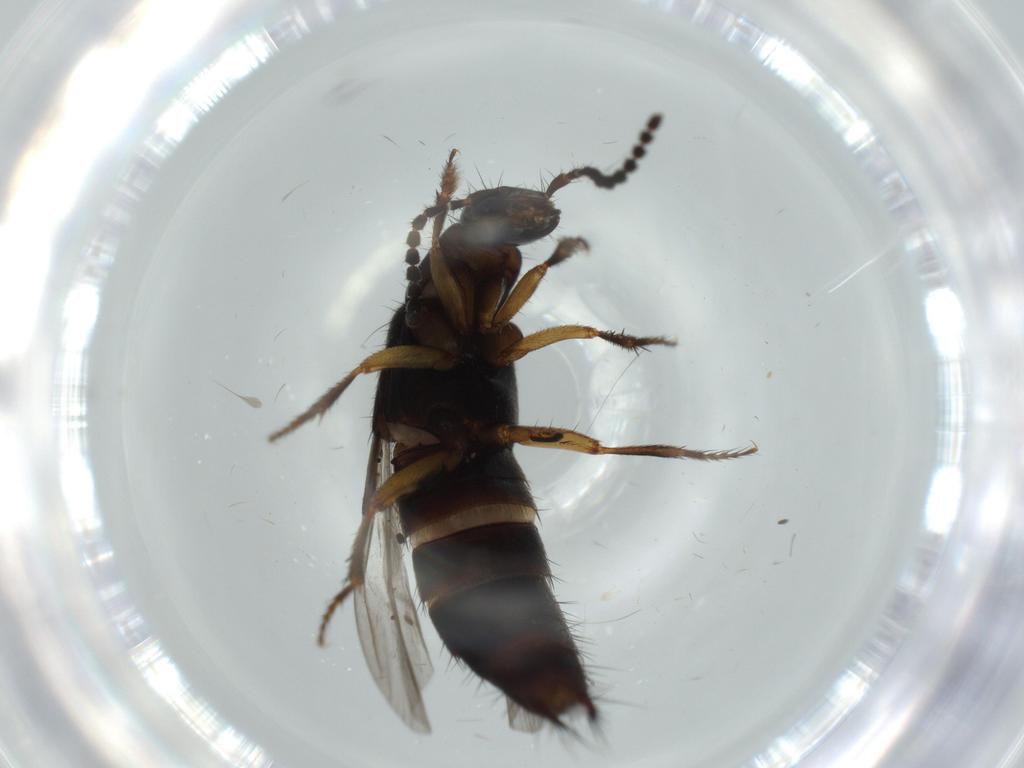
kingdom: Animalia
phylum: Arthropoda
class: Insecta
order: Coleoptera
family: Staphylinidae
